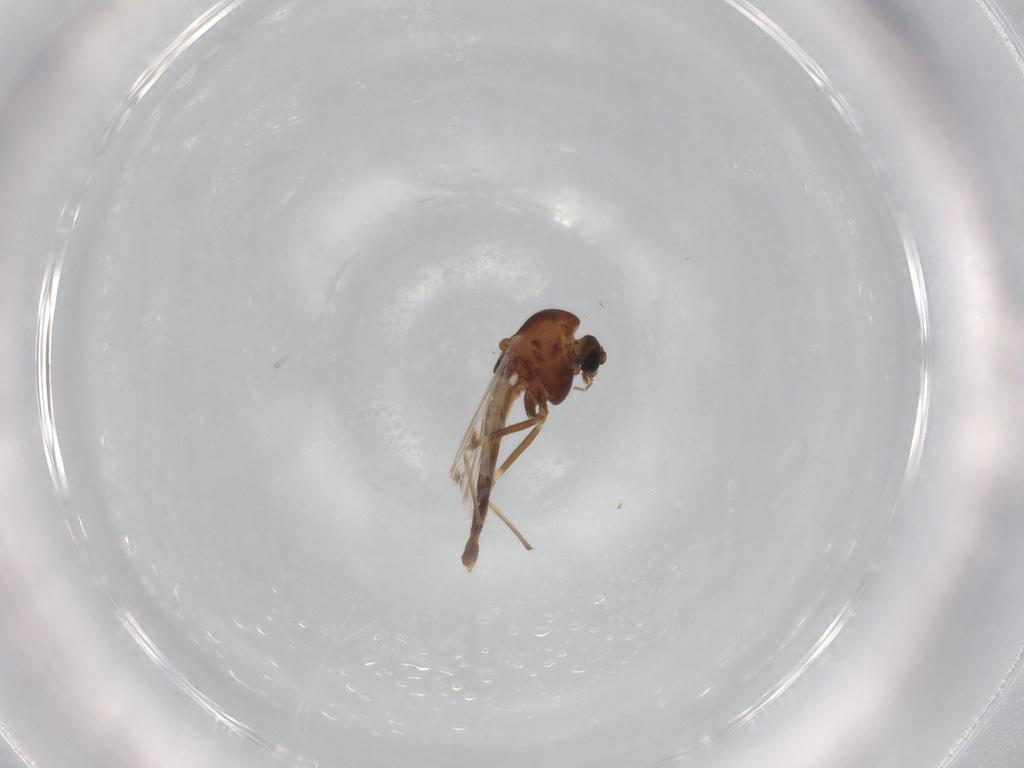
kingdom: Animalia
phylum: Arthropoda
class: Insecta
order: Diptera
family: Chironomidae
